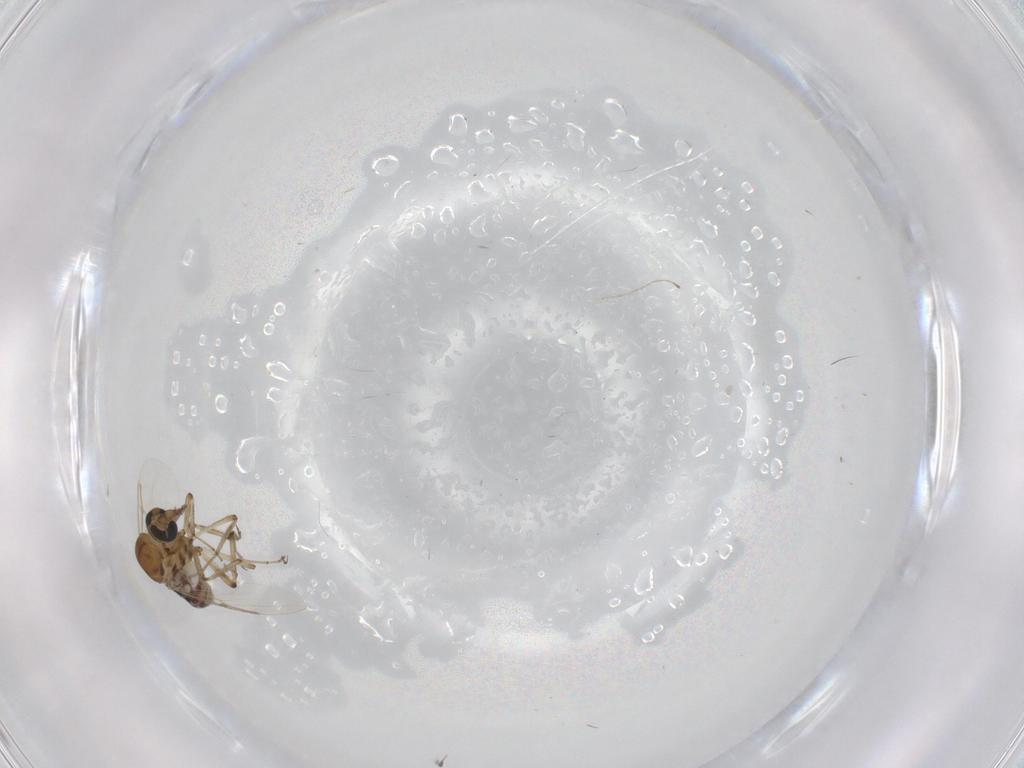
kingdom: Animalia
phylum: Arthropoda
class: Insecta
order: Diptera
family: Ceratopogonidae
